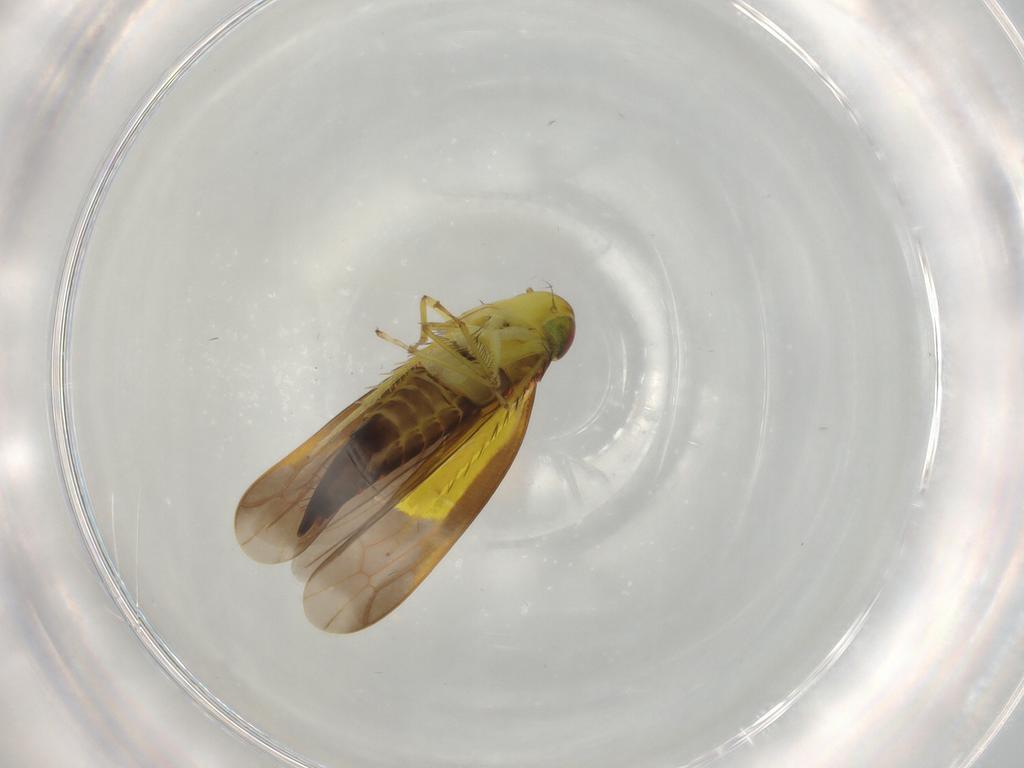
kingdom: Animalia
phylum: Arthropoda
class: Insecta
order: Hemiptera
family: Cicadellidae
